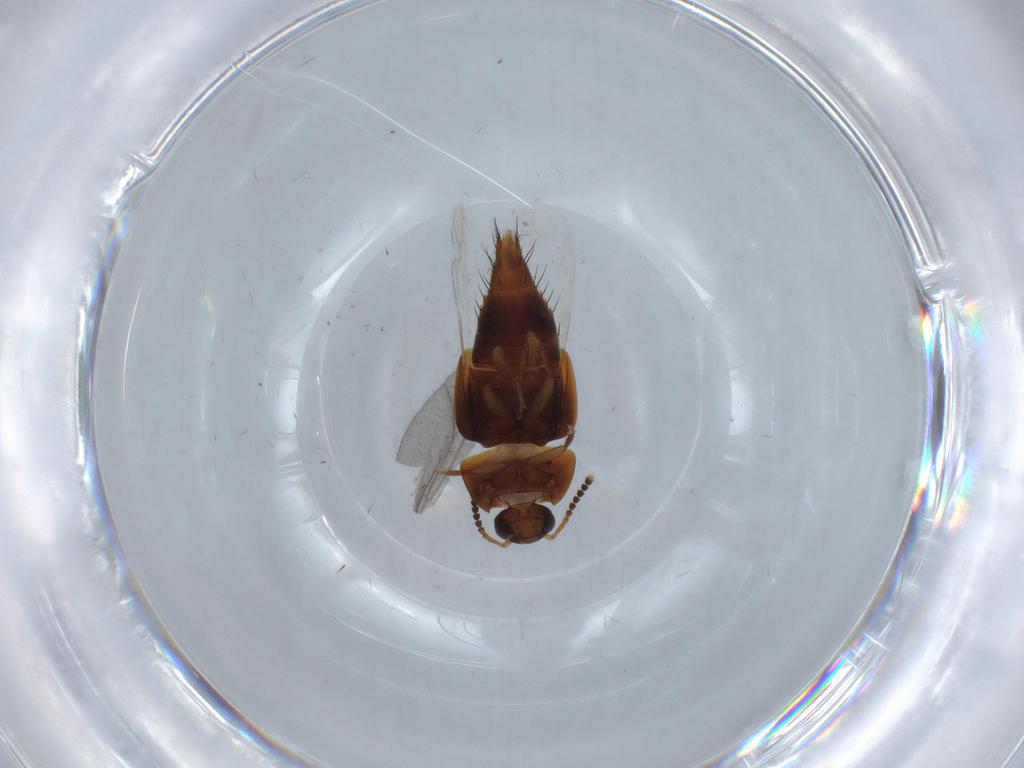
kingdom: Animalia
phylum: Arthropoda
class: Insecta
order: Coleoptera
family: Staphylinidae
